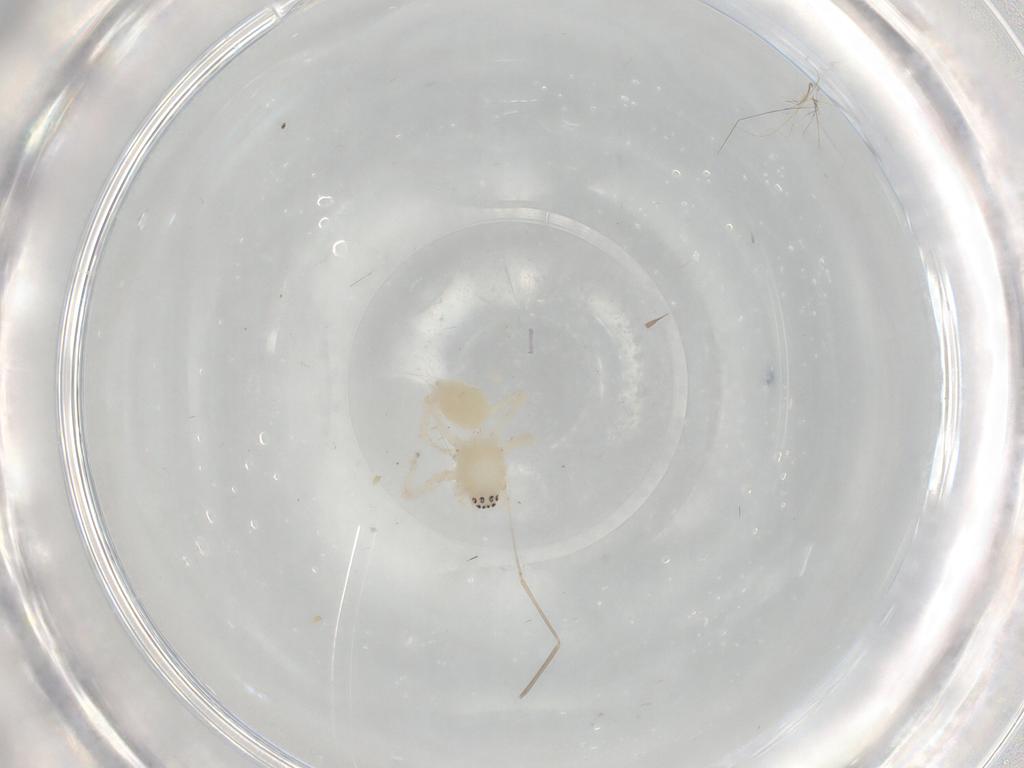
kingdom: Animalia
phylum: Arthropoda
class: Arachnida
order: Araneae
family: Anyphaenidae
